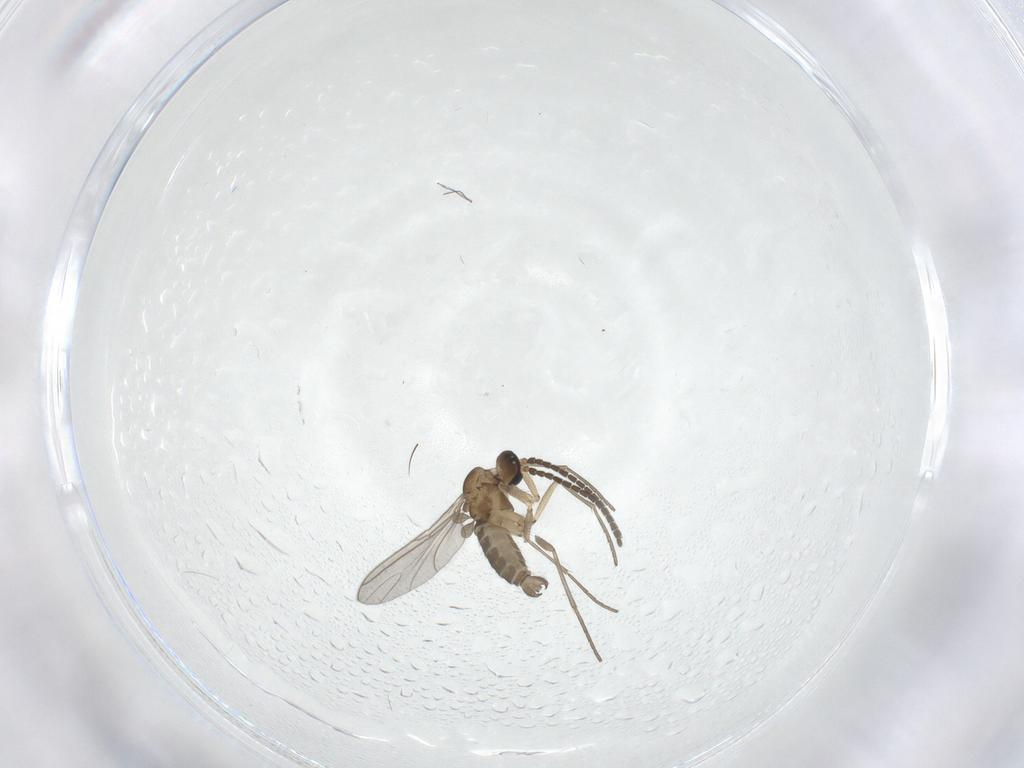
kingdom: Animalia
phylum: Arthropoda
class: Insecta
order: Diptera
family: Sciaridae
